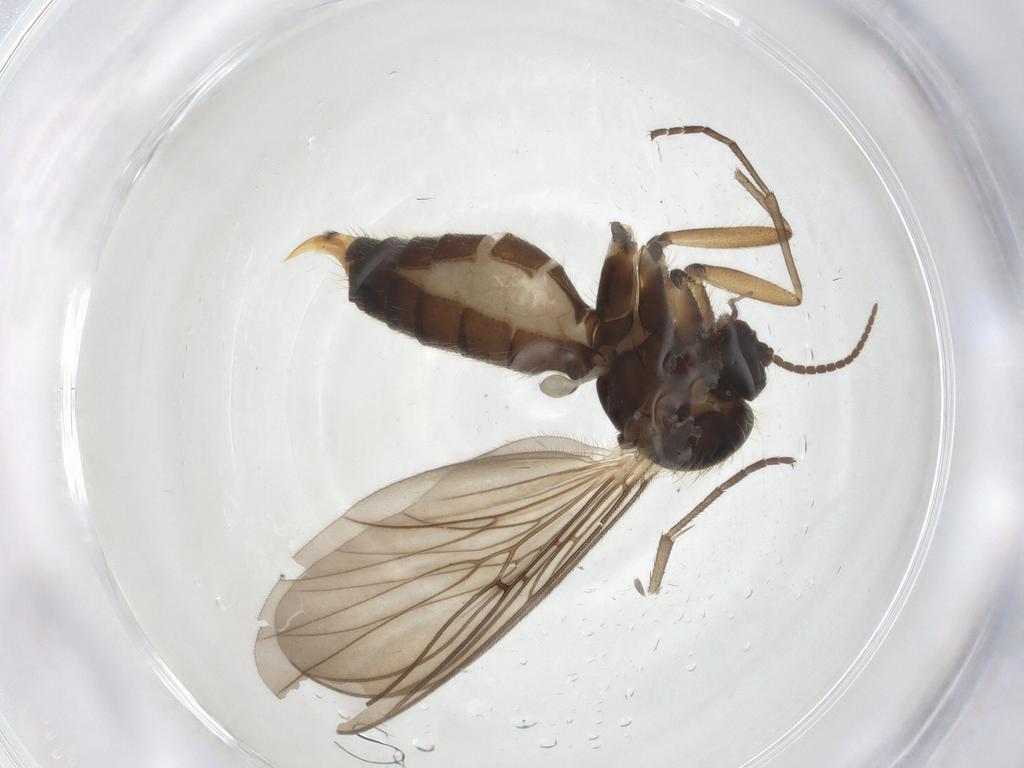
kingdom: Animalia
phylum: Arthropoda
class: Insecta
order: Diptera
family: Mycetophilidae
